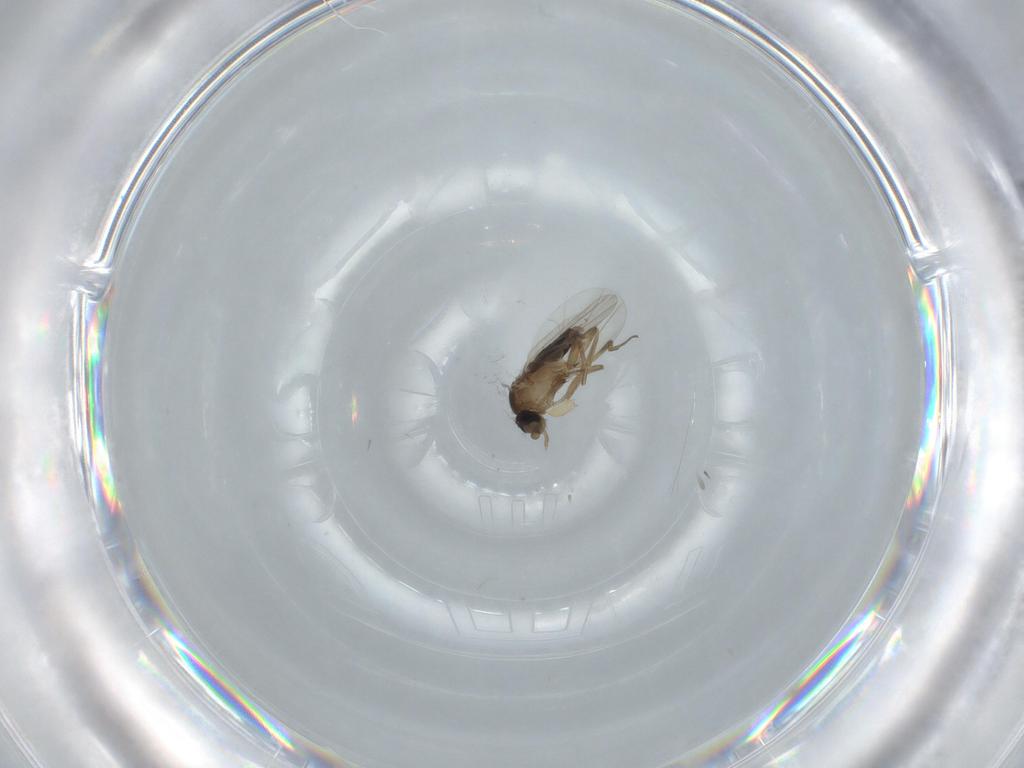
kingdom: Animalia
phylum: Arthropoda
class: Insecta
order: Diptera
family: Phoridae
